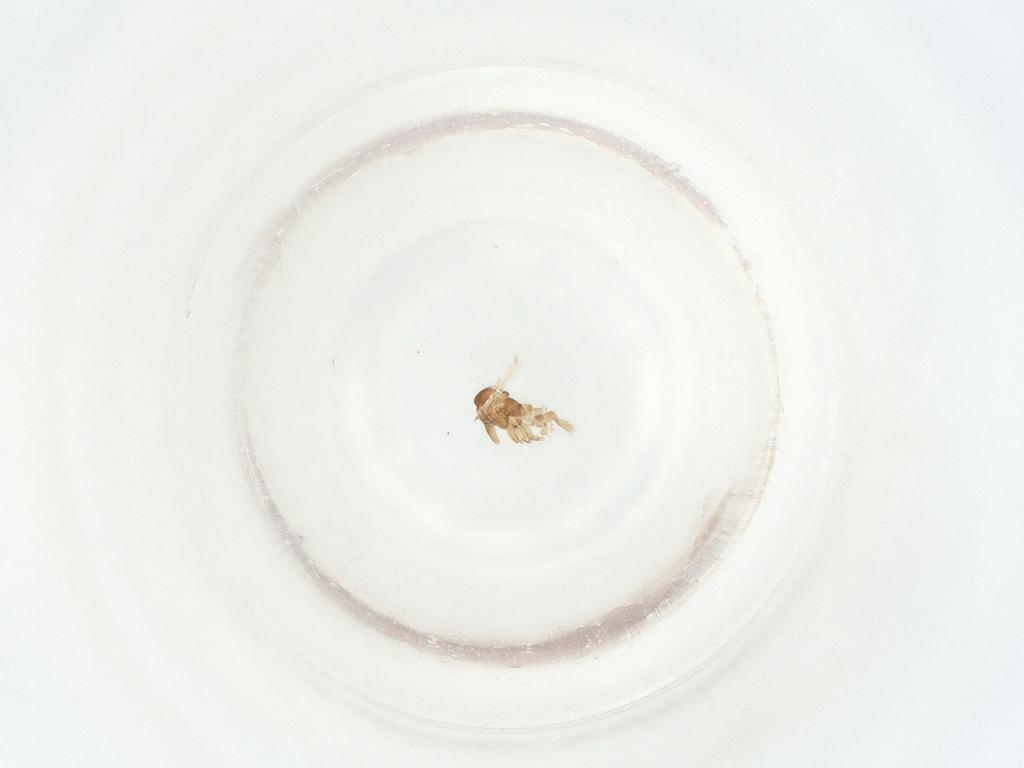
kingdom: Animalia
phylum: Arthropoda
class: Insecta
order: Diptera
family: Sciaridae
